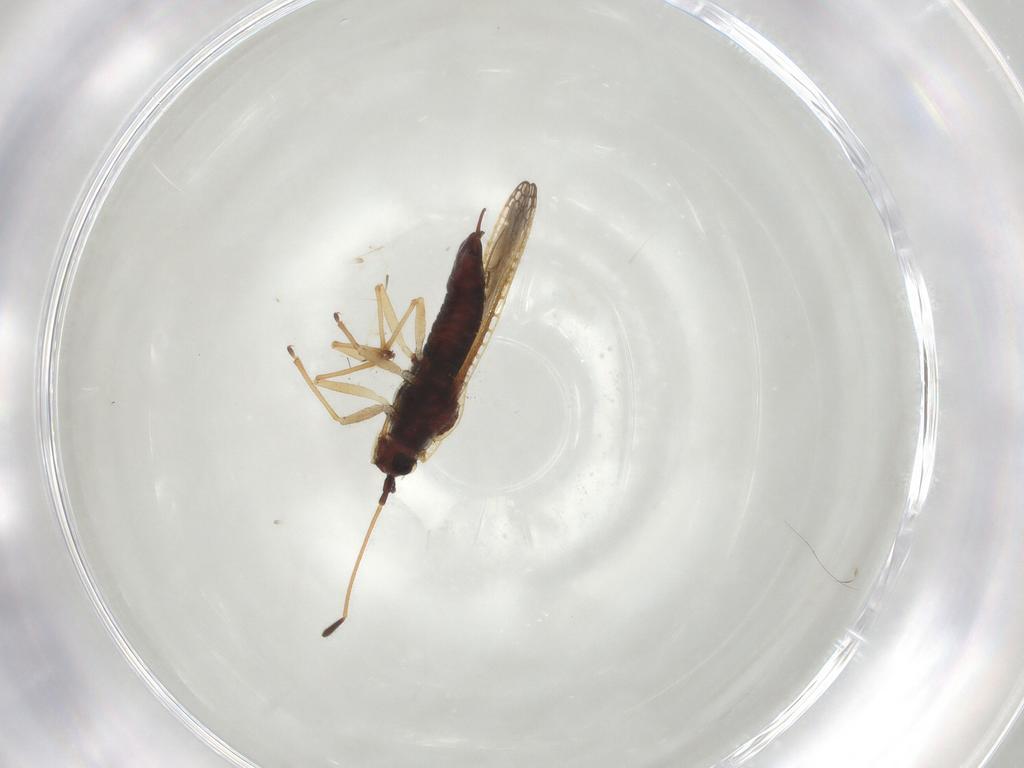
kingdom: Animalia
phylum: Arthropoda
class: Insecta
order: Hemiptera
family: Tingidae
